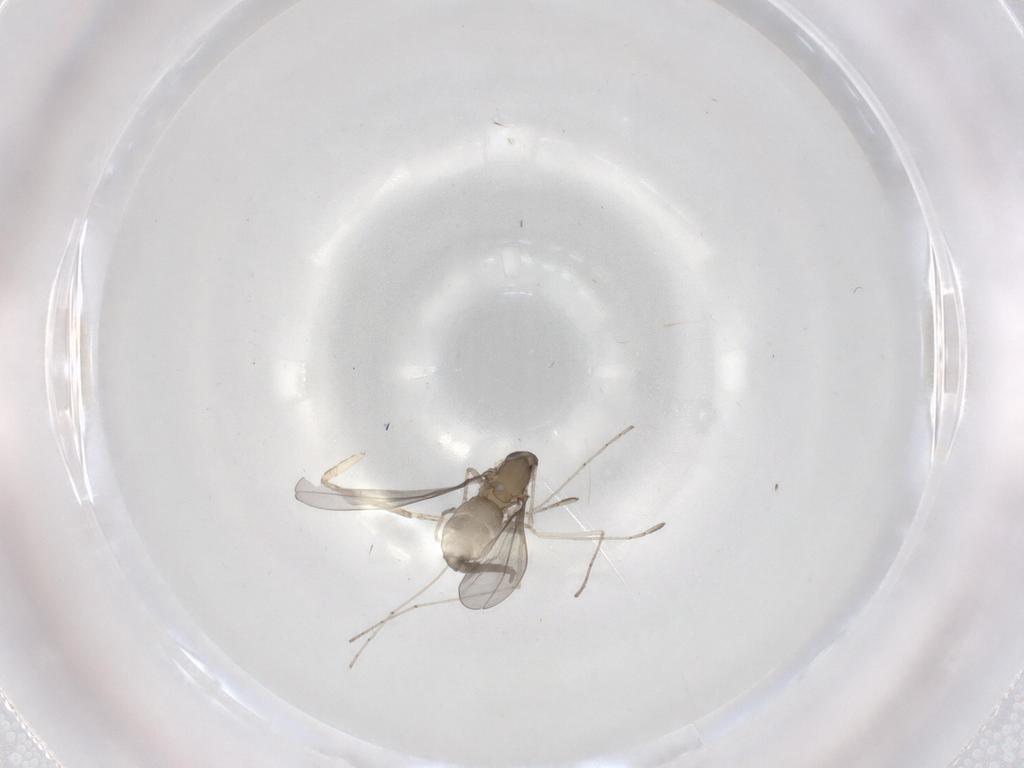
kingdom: Animalia
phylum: Arthropoda
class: Insecta
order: Diptera
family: Cecidomyiidae
